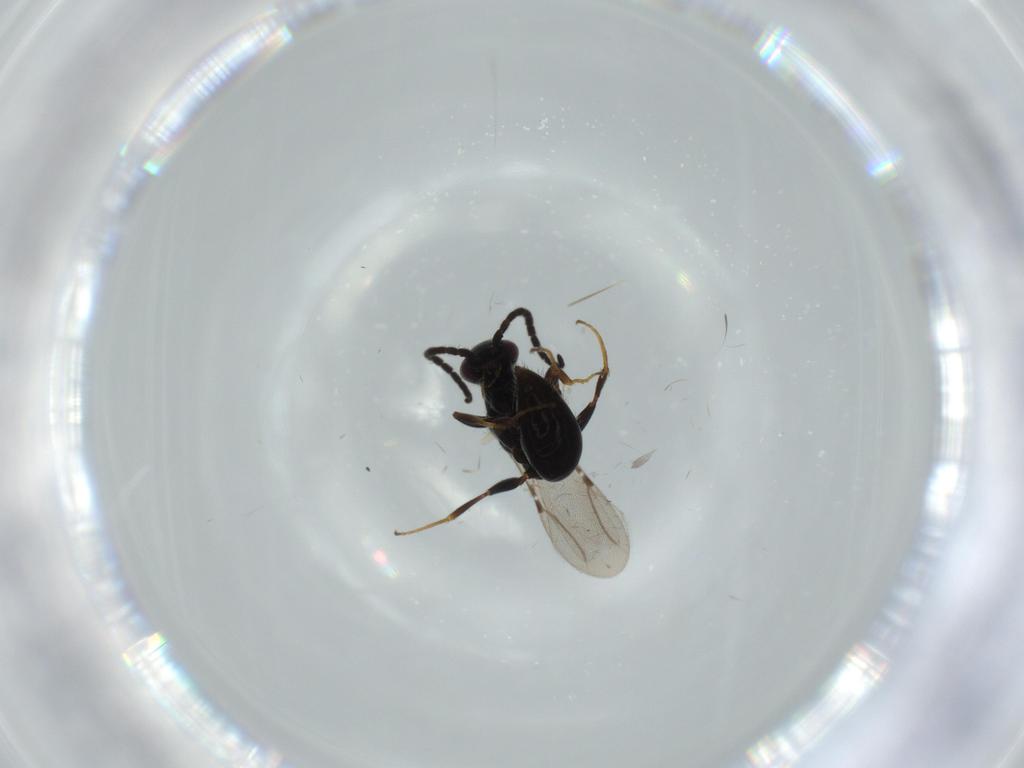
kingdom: Animalia
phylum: Arthropoda
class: Insecta
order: Hymenoptera
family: Bethylidae
